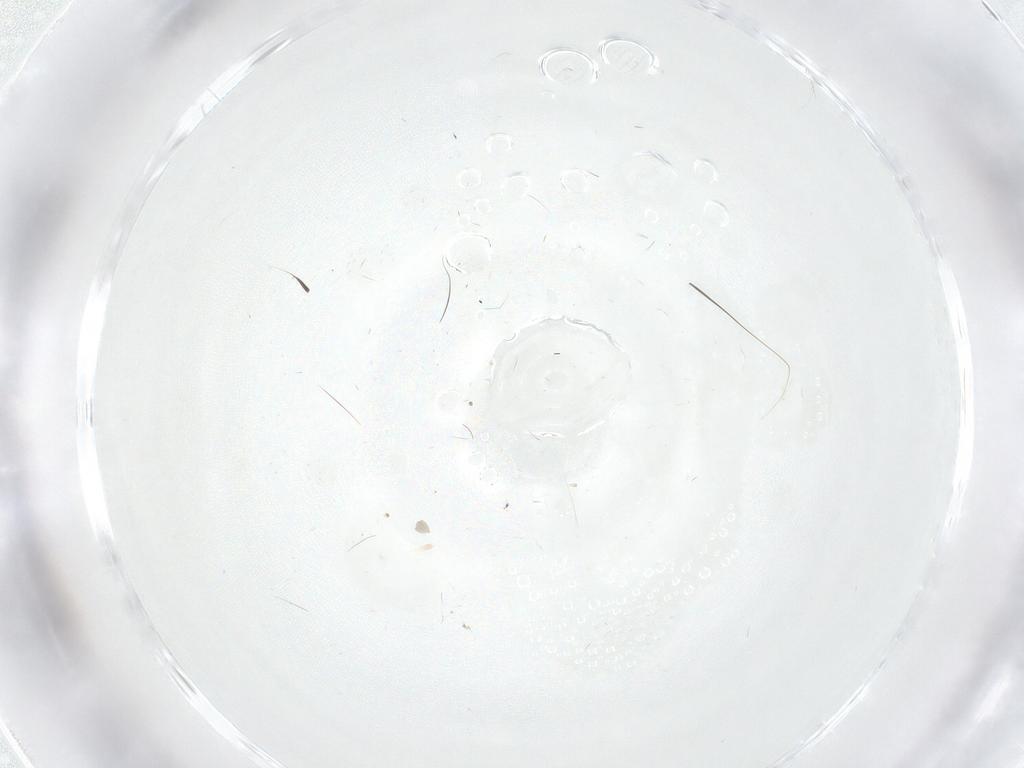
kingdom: Animalia
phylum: Arthropoda
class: Insecta
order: Diptera
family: Ceratopogonidae
